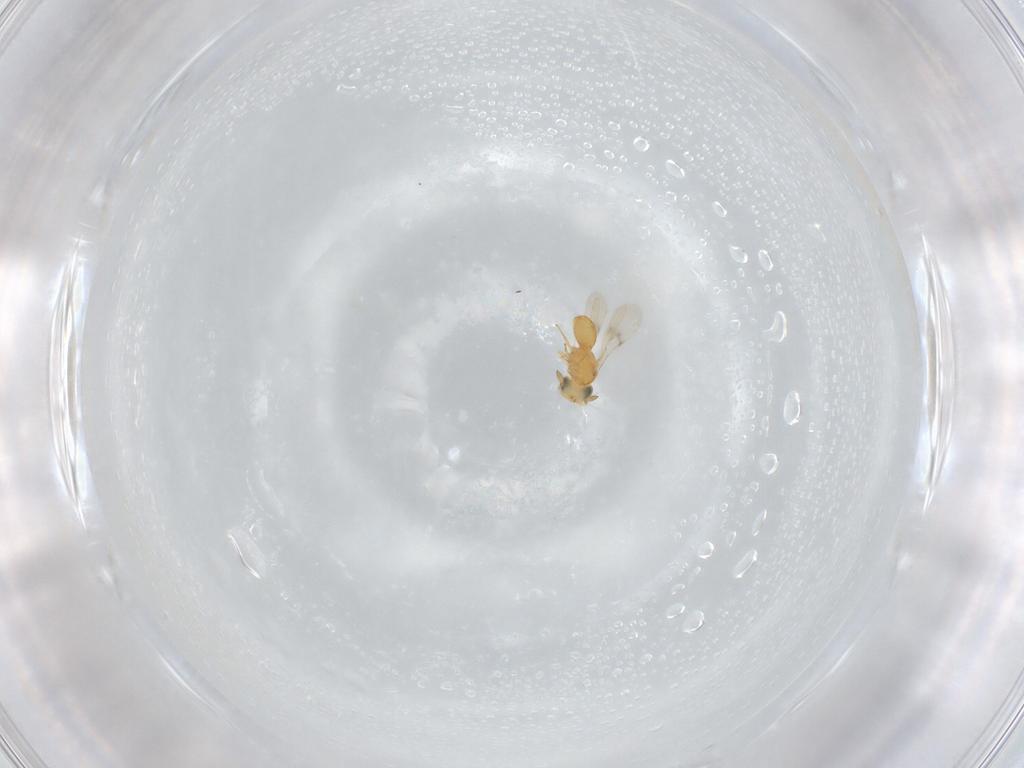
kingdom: Animalia
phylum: Arthropoda
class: Insecta
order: Hymenoptera
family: Scelionidae
